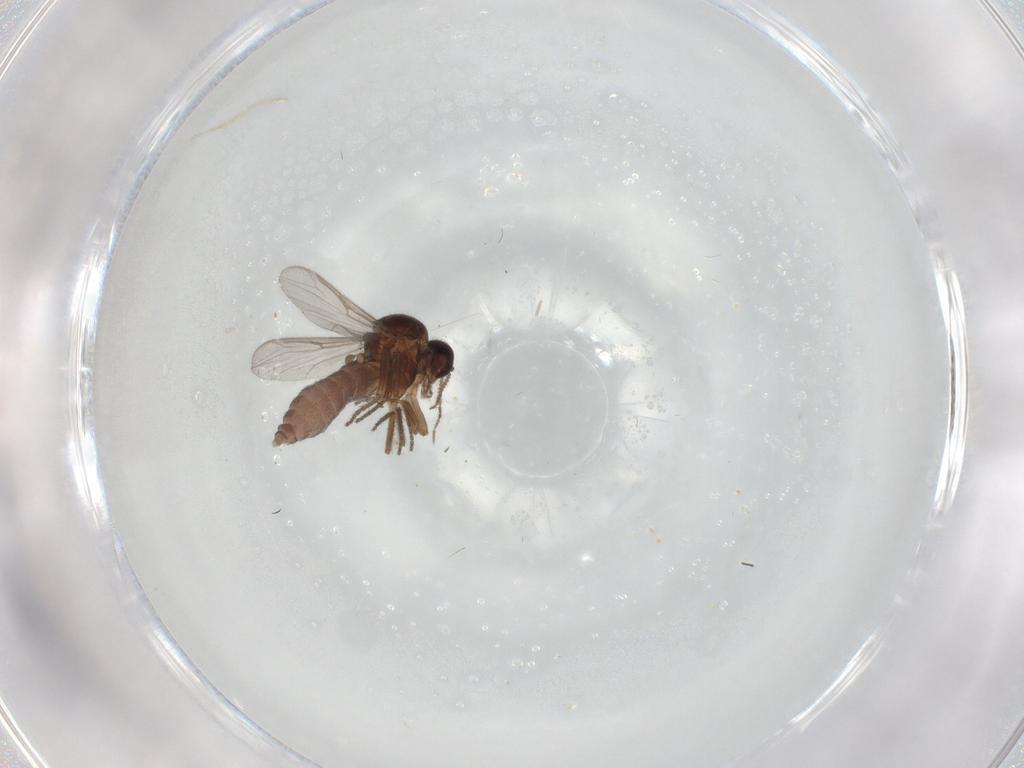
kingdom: Animalia
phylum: Arthropoda
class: Insecta
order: Diptera
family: Ceratopogonidae
